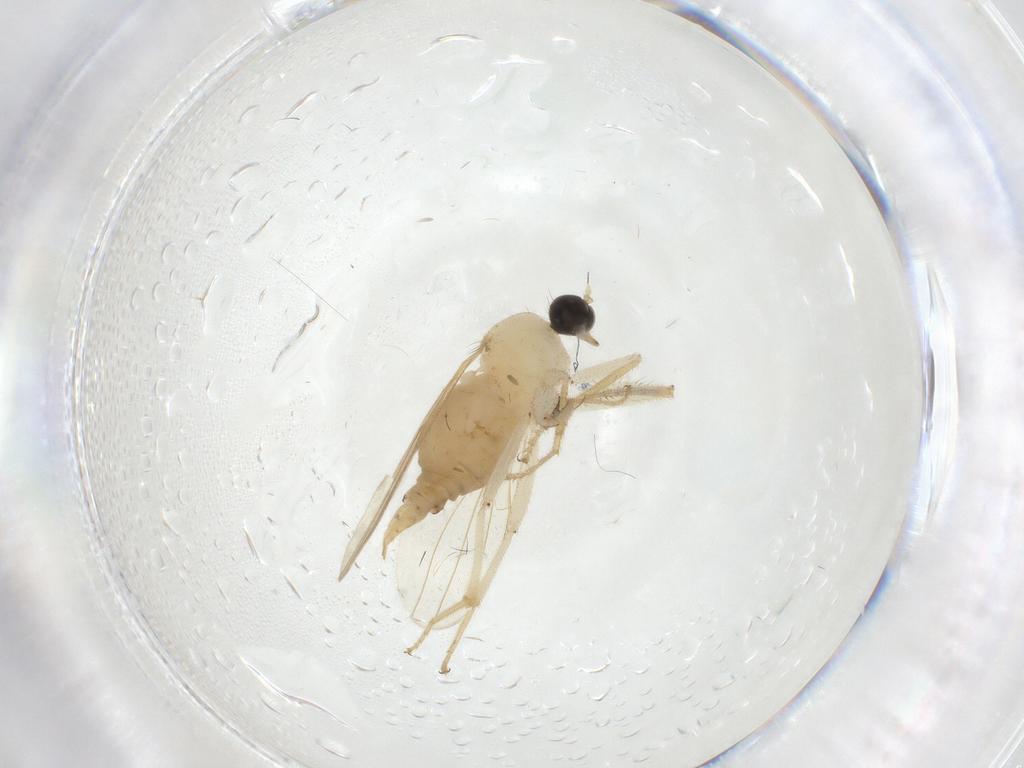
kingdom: Animalia
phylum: Arthropoda
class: Insecta
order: Diptera
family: Hybotidae
